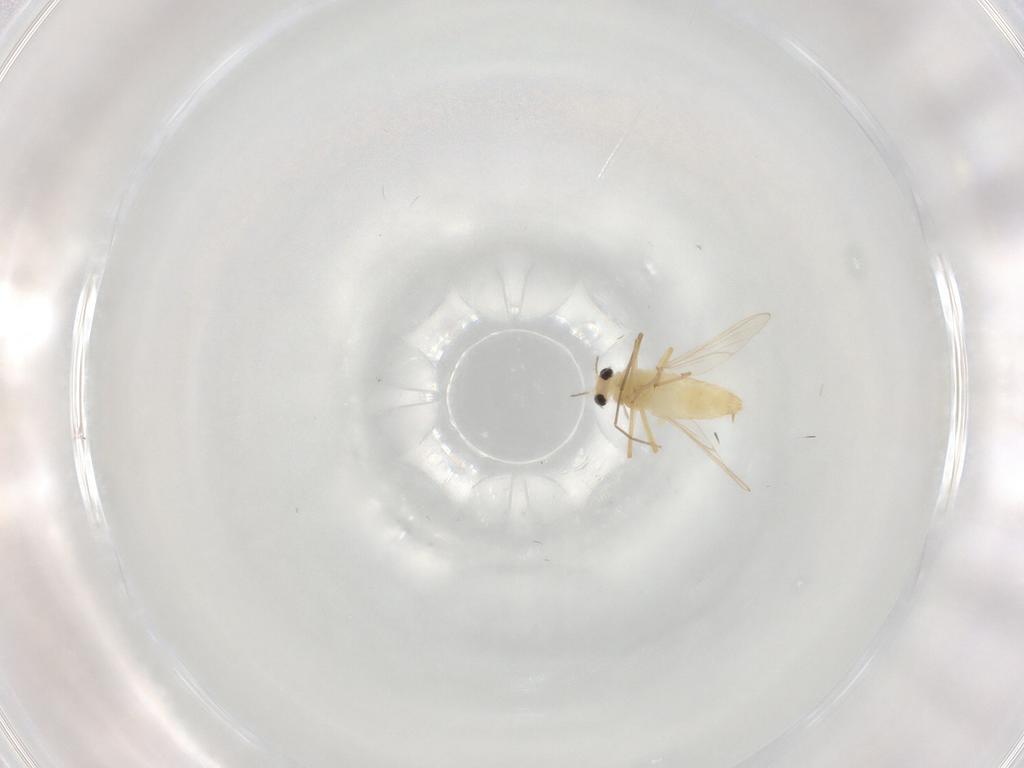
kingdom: Animalia
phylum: Arthropoda
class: Insecta
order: Diptera
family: Chironomidae
